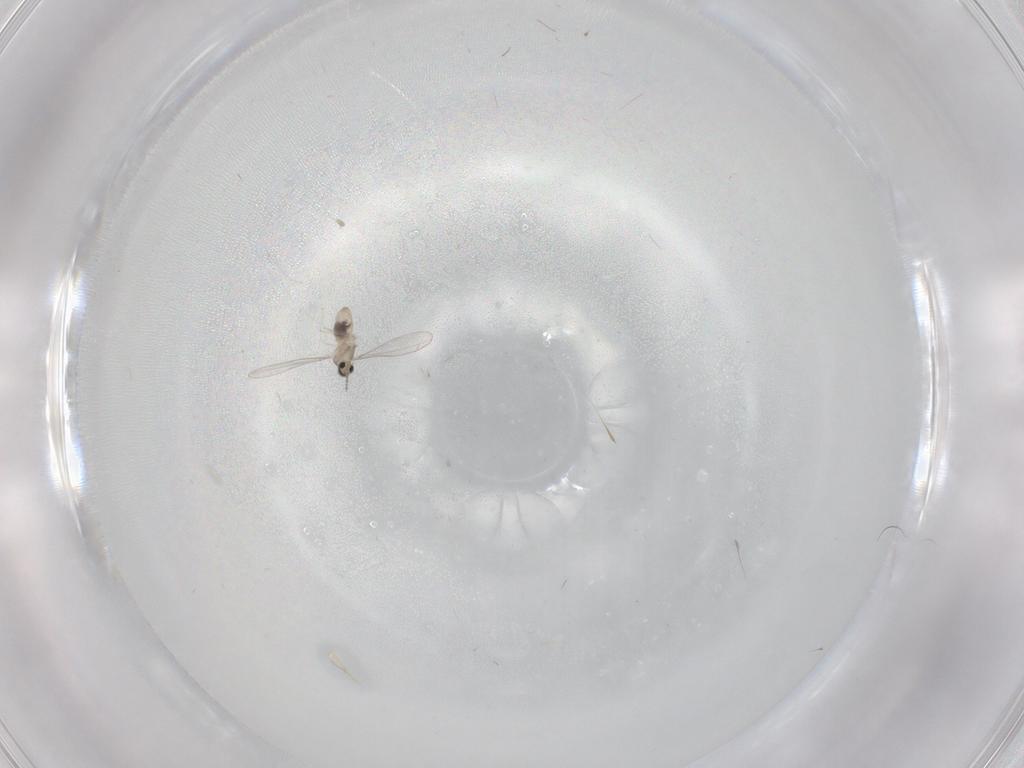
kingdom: Animalia
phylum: Arthropoda
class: Insecta
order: Diptera
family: Cecidomyiidae
